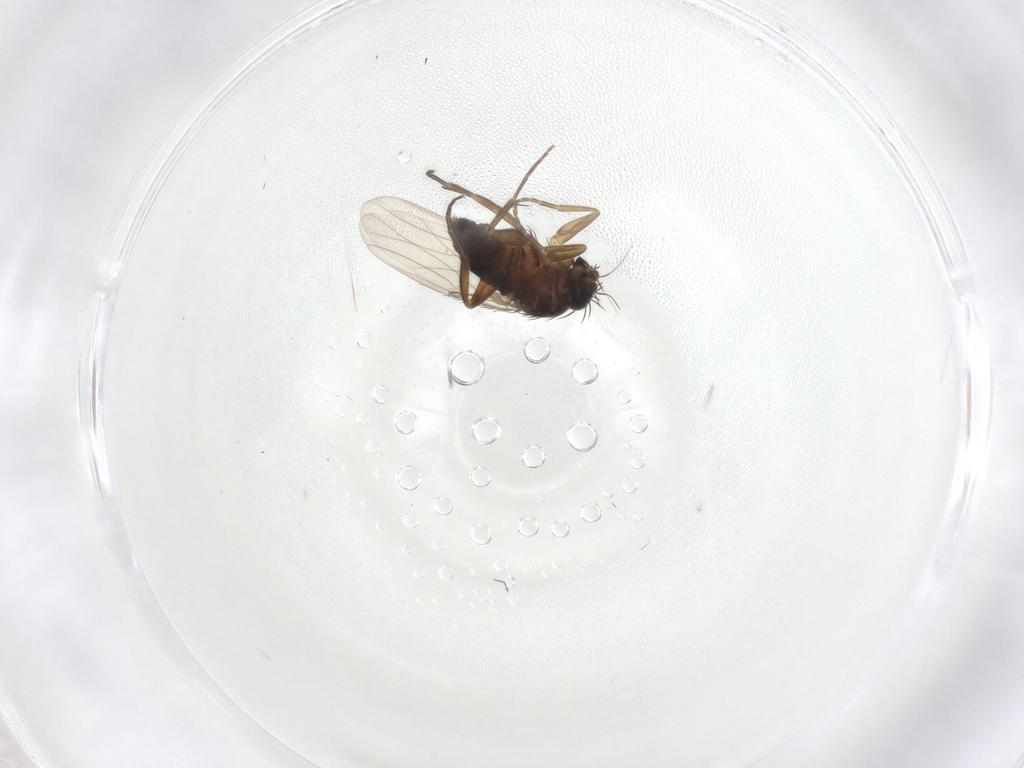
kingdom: Animalia
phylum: Arthropoda
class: Insecta
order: Diptera
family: Phoridae
